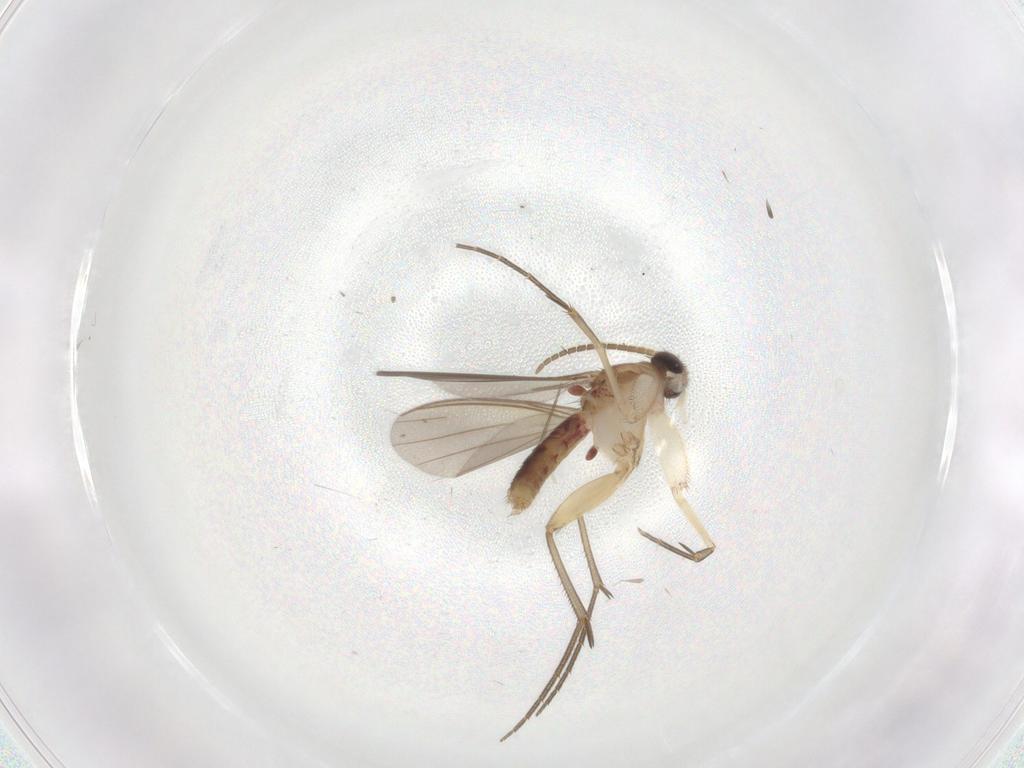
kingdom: Animalia
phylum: Arthropoda
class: Insecta
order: Diptera
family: Mycetophilidae
